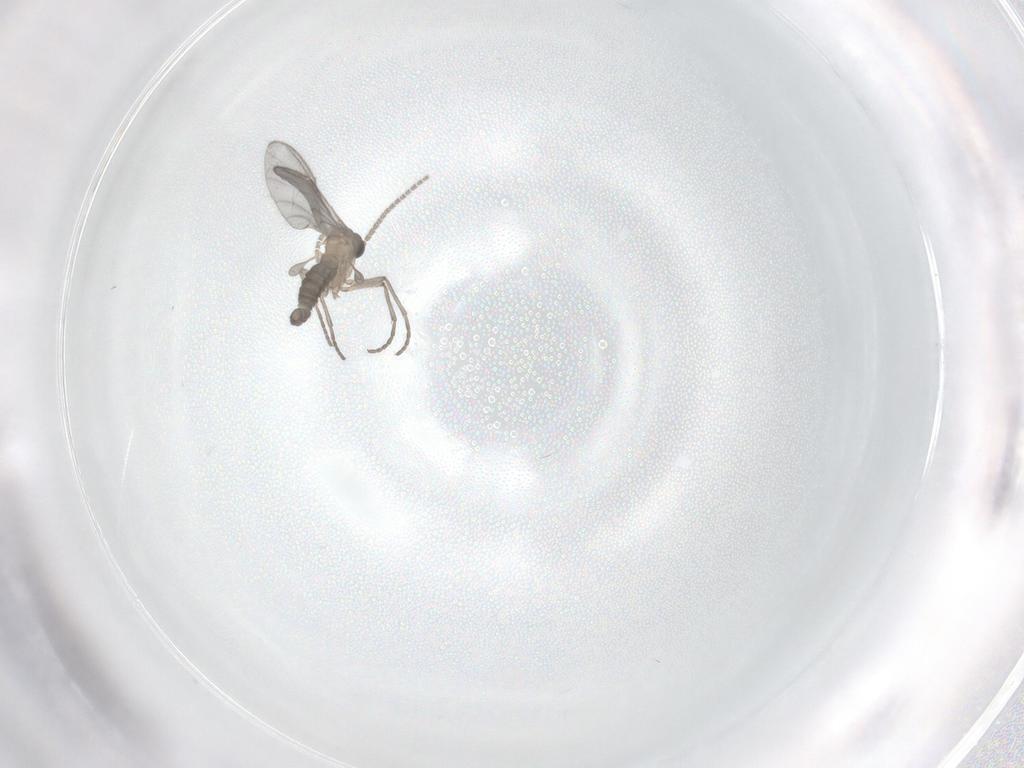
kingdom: Animalia
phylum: Arthropoda
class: Insecta
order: Diptera
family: Sciaridae
